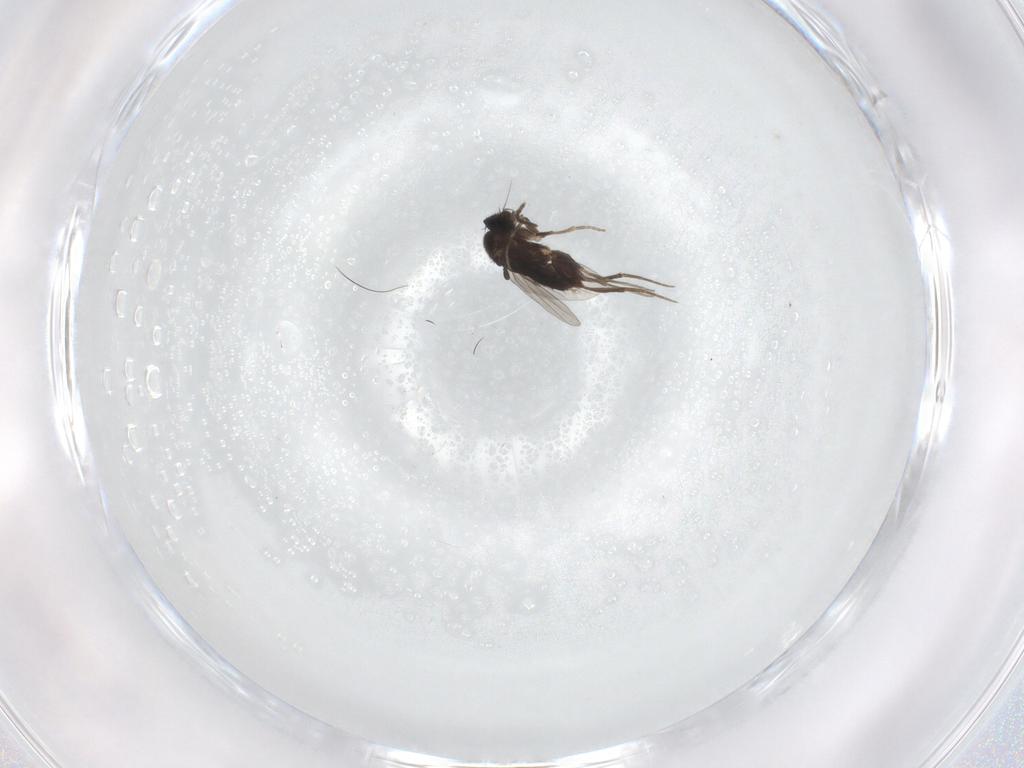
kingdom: Animalia
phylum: Arthropoda
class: Insecta
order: Diptera
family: Phoridae
